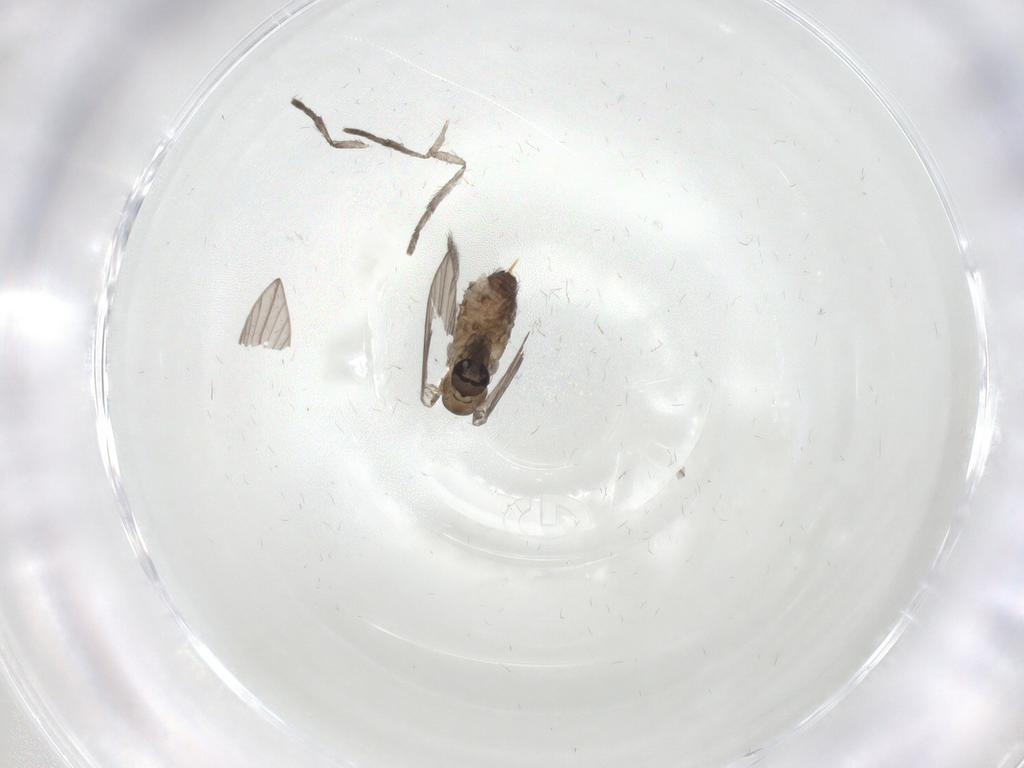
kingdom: Animalia
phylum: Arthropoda
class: Insecta
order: Diptera
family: Psychodidae
